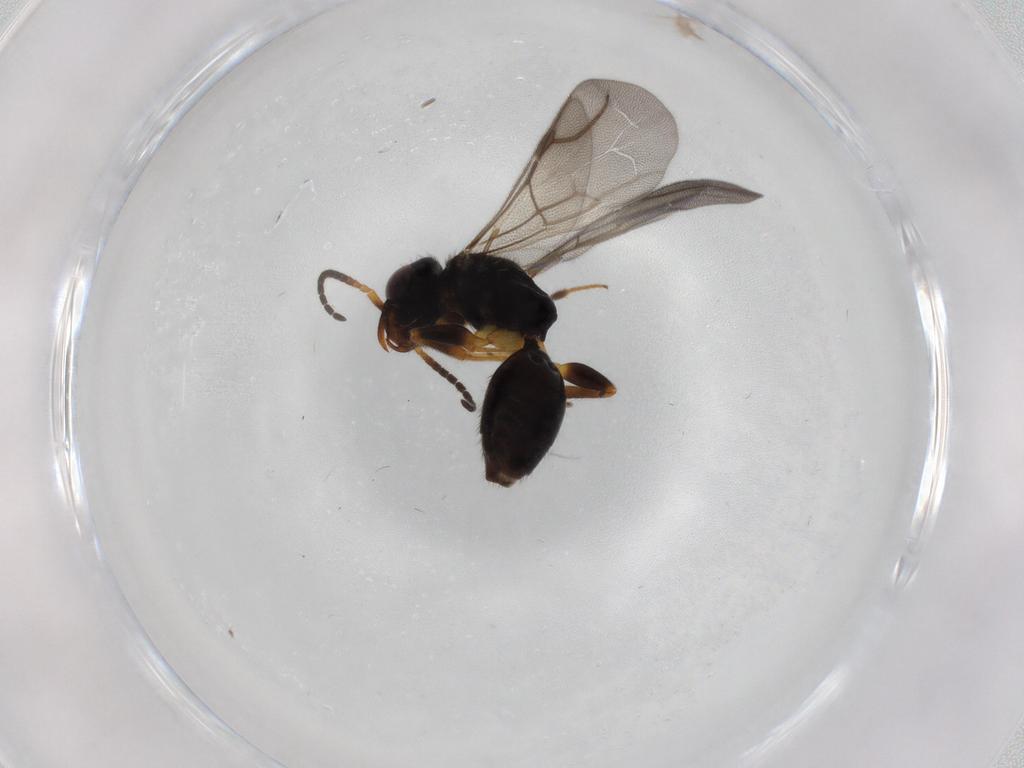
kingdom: Animalia
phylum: Arthropoda
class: Insecta
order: Hymenoptera
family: Bethylidae
